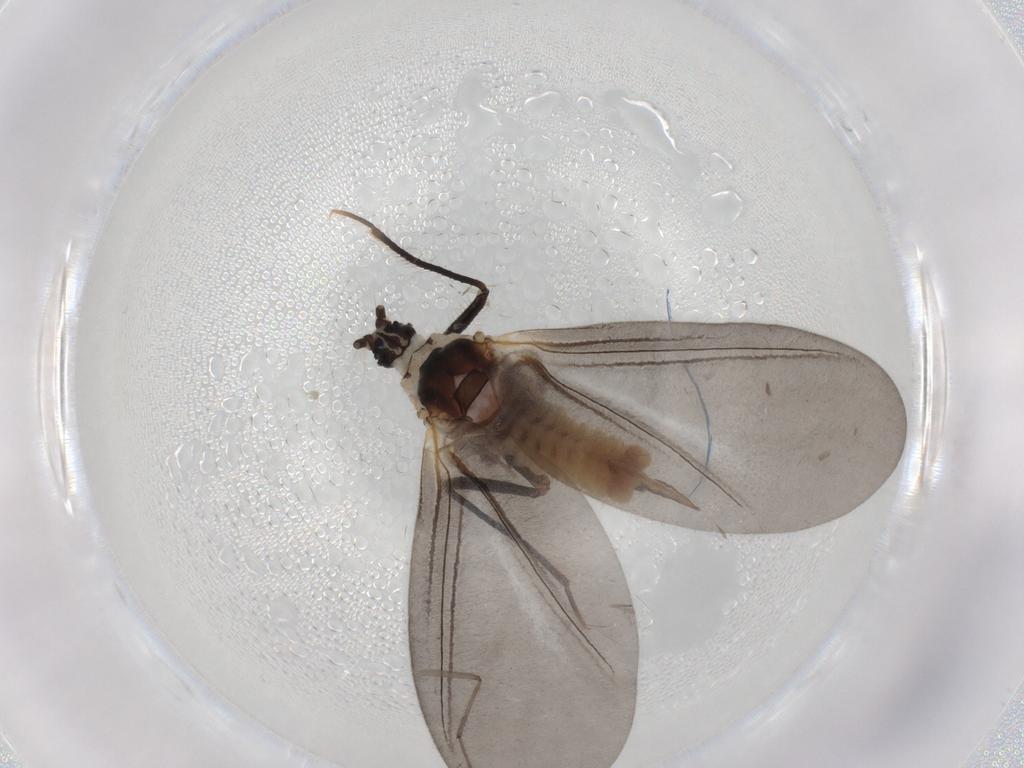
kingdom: Animalia
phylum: Arthropoda
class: Insecta
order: Hemiptera
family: Putoidae
